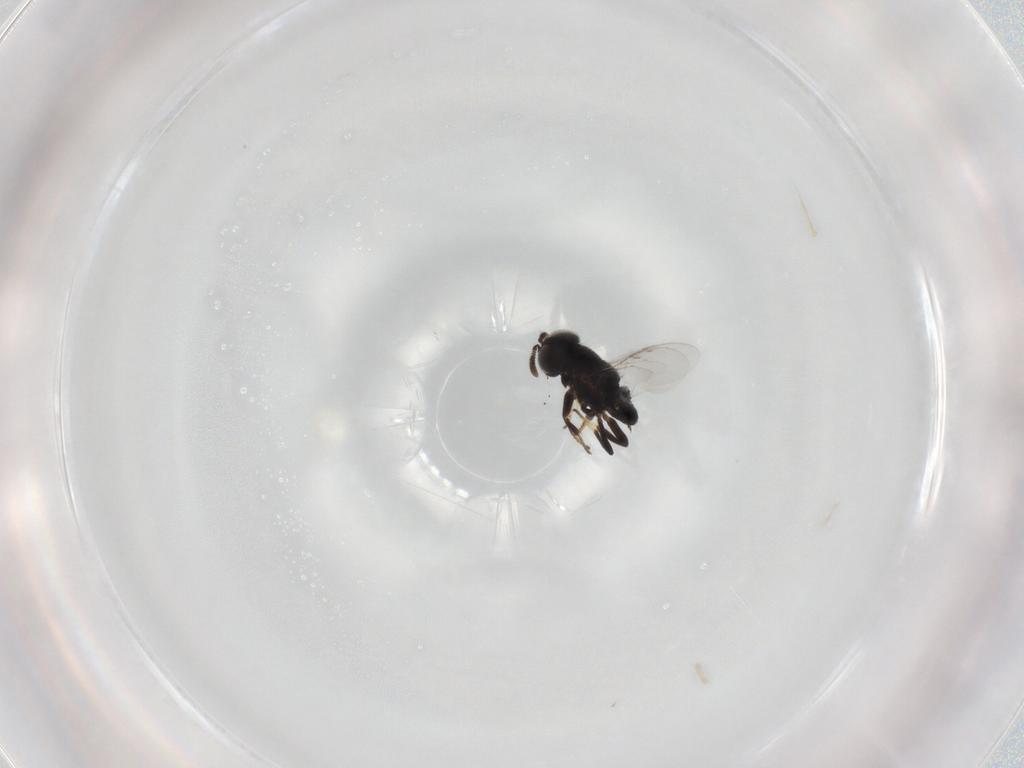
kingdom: Animalia
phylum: Arthropoda
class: Insecta
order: Hymenoptera
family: Encyrtidae
